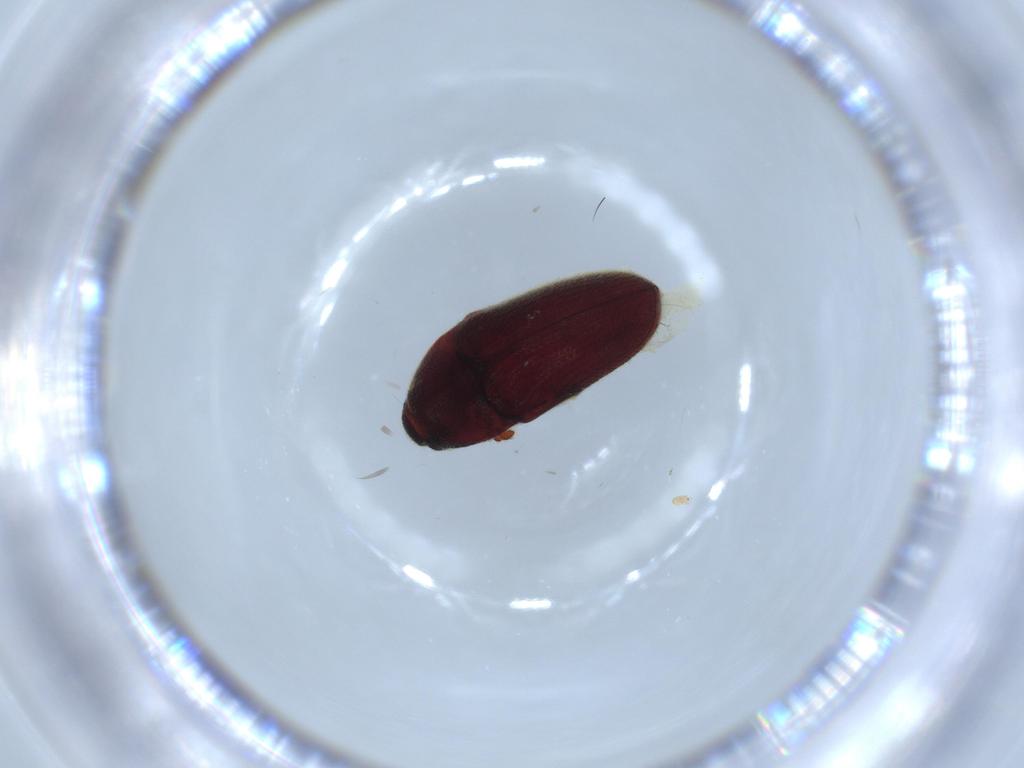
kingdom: Animalia
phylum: Arthropoda
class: Insecta
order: Coleoptera
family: Throscidae
